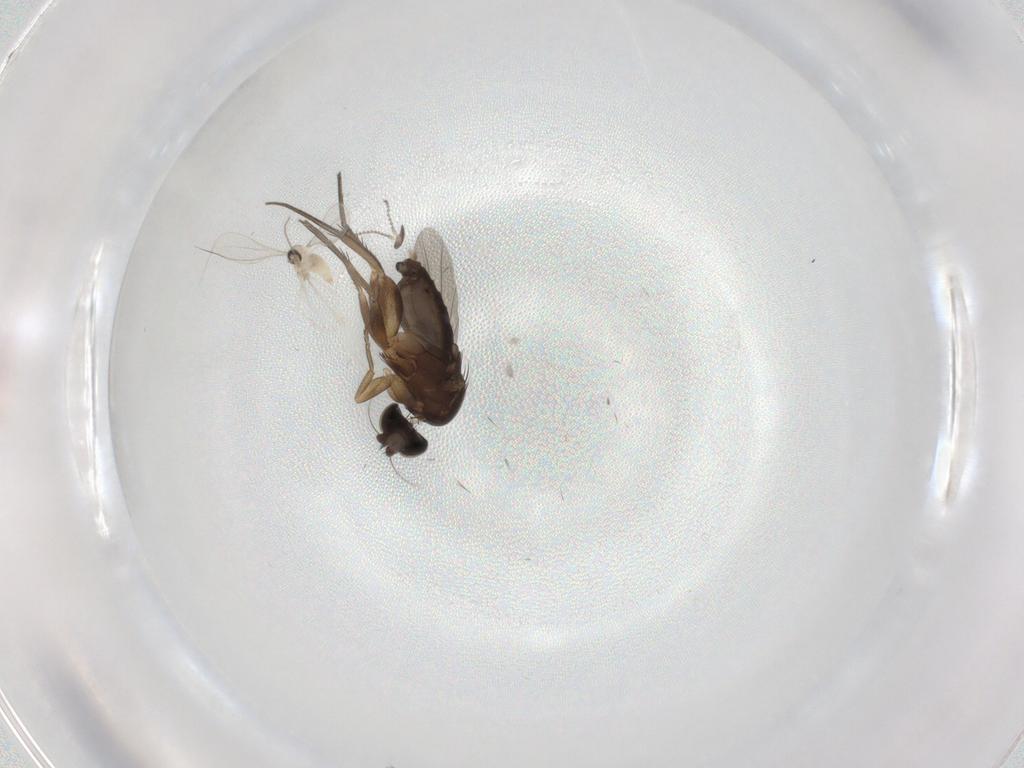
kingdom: Animalia
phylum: Arthropoda
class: Insecta
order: Diptera
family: Phoridae
